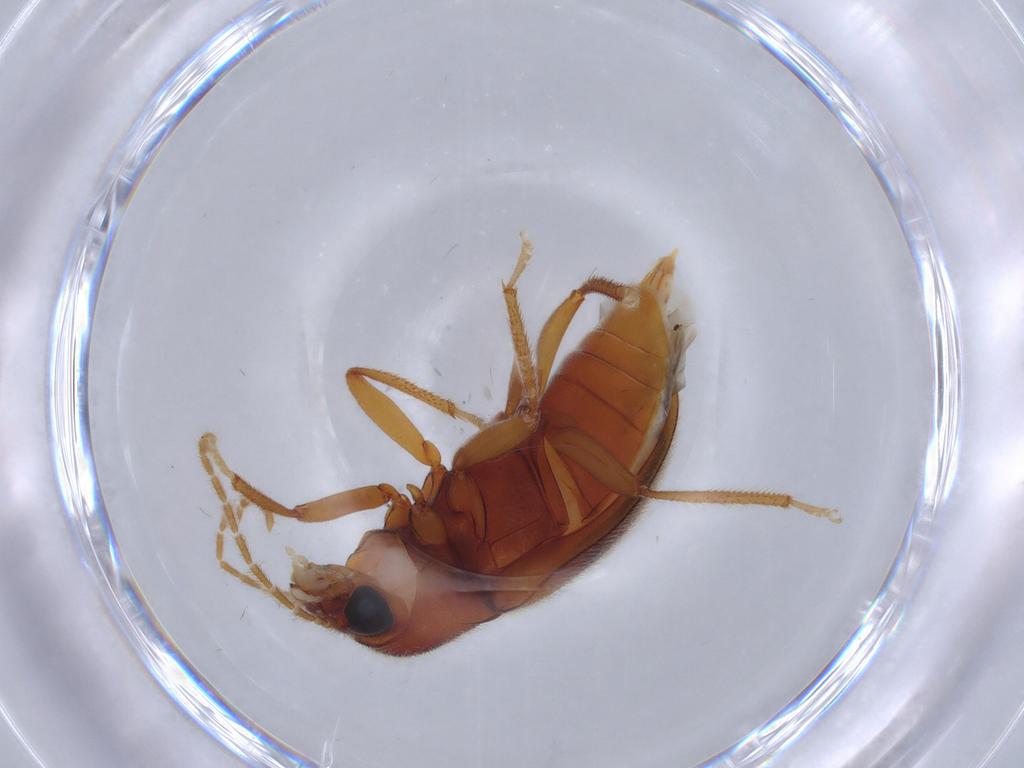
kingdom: Animalia
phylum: Arthropoda
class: Insecta
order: Coleoptera
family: Ptilodactylidae
